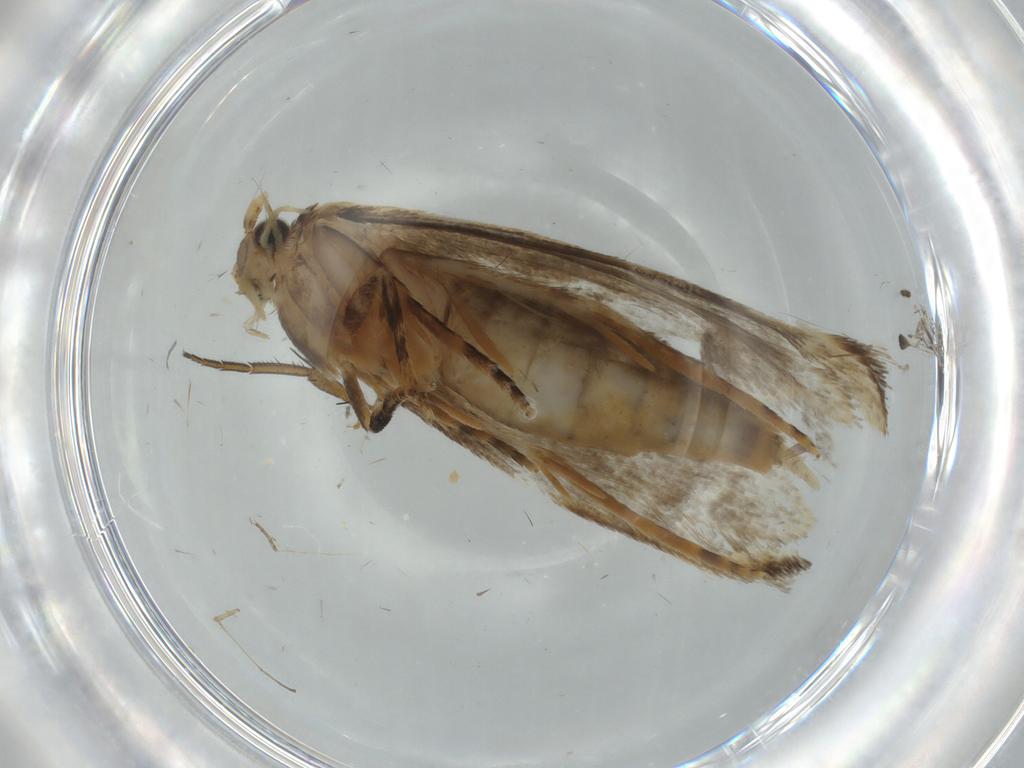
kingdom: Animalia
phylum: Arthropoda
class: Insecta
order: Lepidoptera
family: Tineidae
